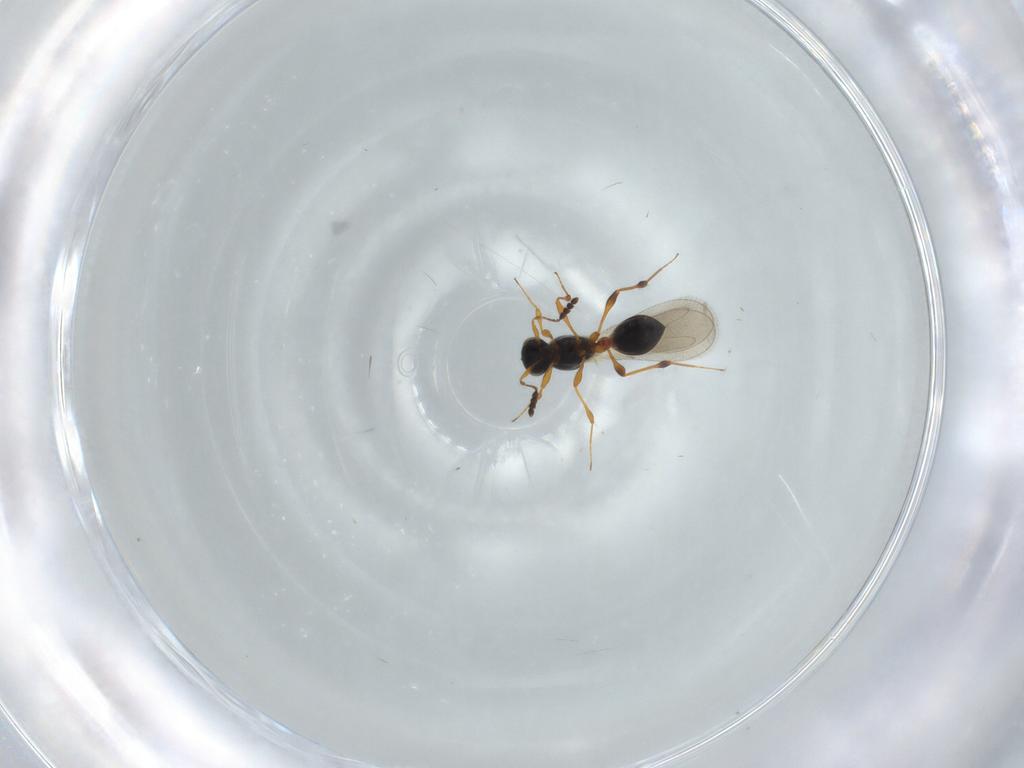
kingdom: Animalia
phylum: Arthropoda
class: Insecta
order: Hymenoptera
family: Platygastridae
